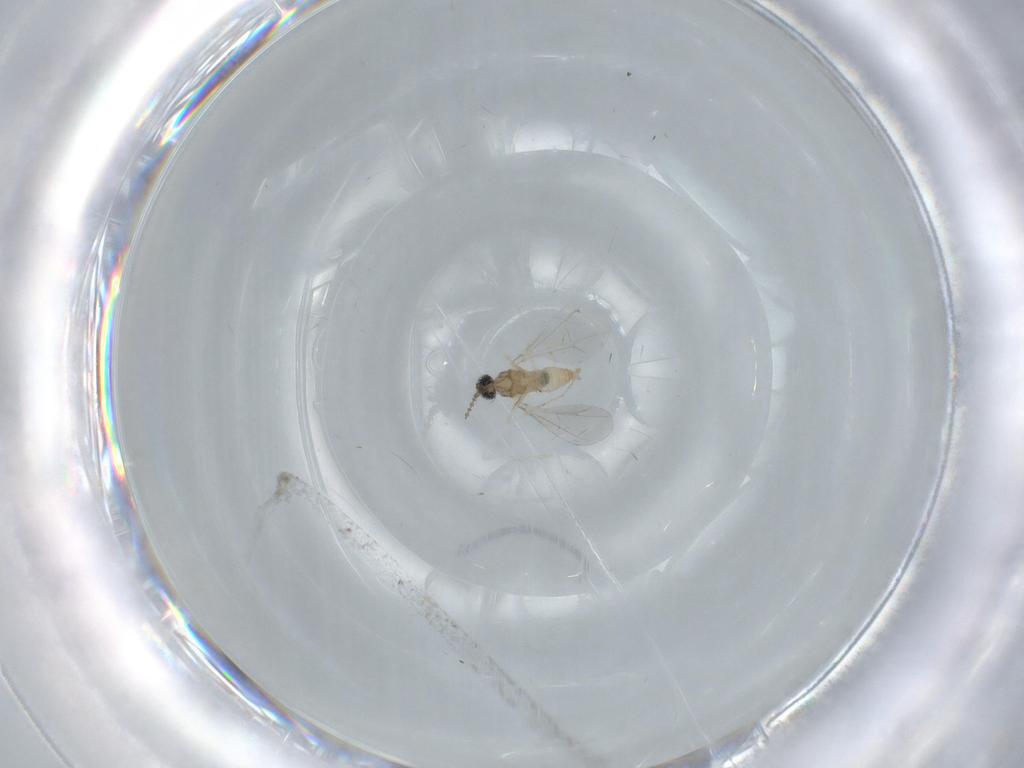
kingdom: Animalia
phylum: Arthropoda
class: Insecta
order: Diptera
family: Cecidomyiidae
